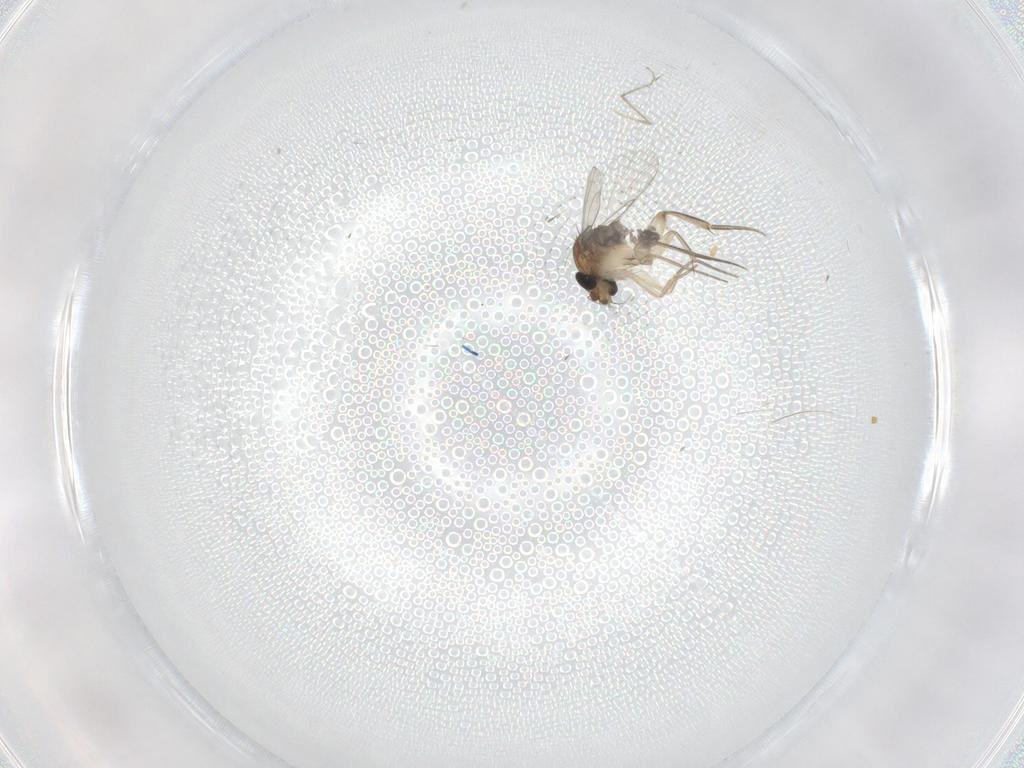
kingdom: Animalia
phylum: Arthropoda
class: Insecta
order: Diptera
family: Phoridae
